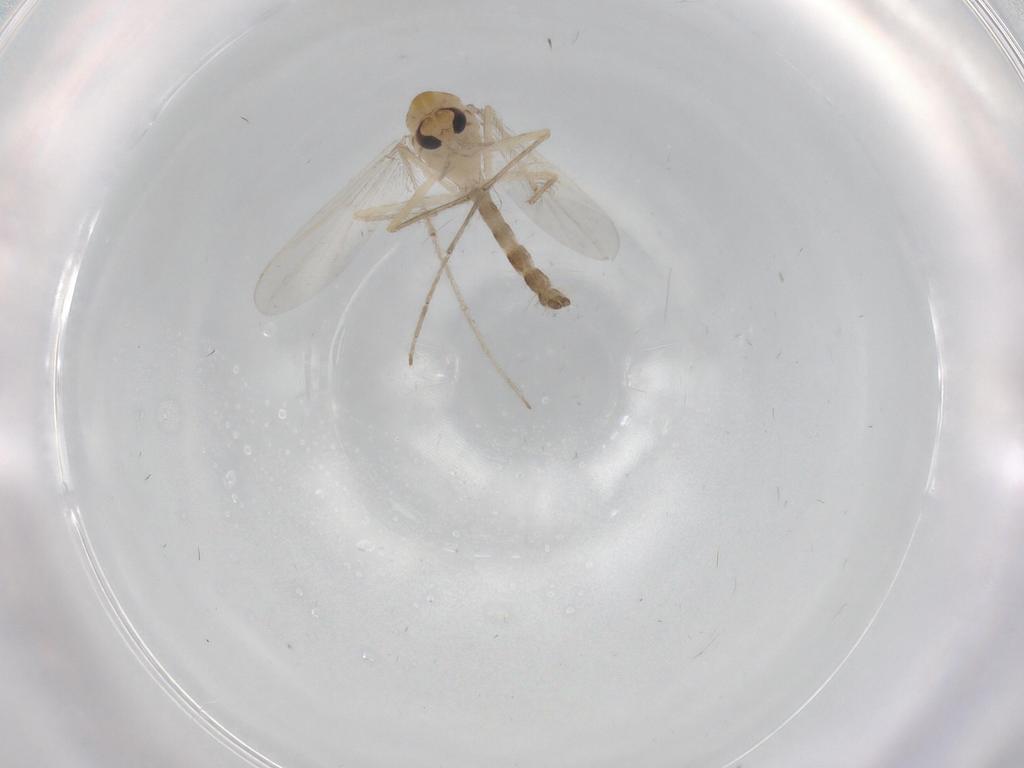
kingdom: Animalia
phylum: Arthropoda
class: Insecta
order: Diptera
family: Chironomidae
